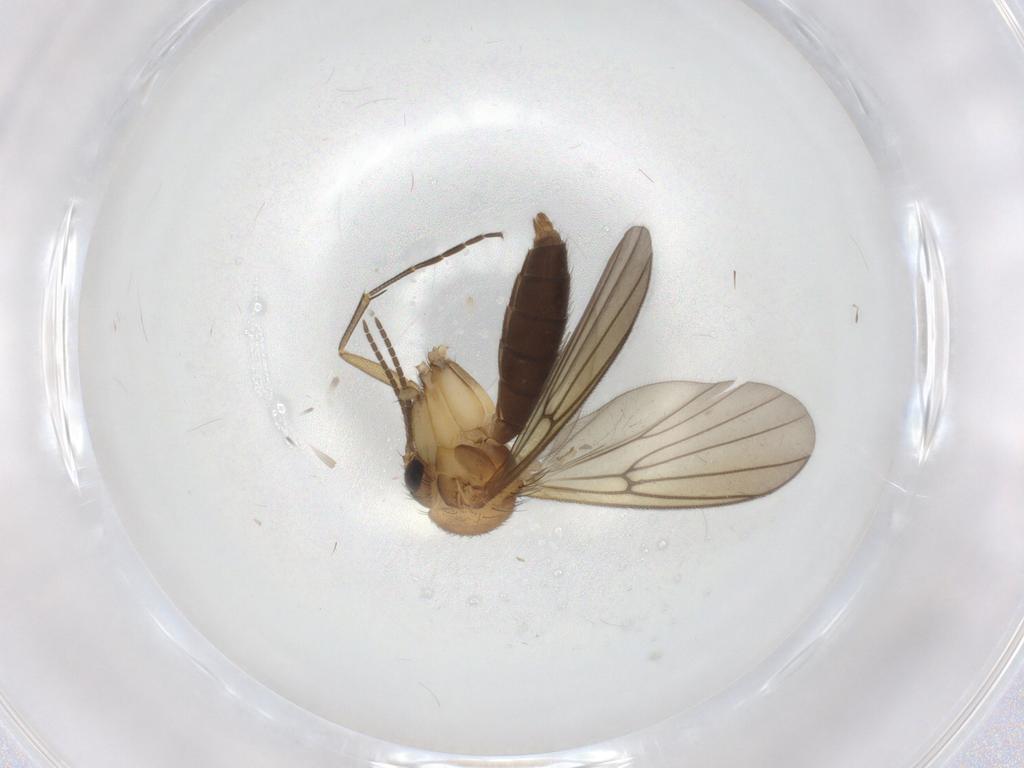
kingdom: Animalia
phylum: Arthropoda
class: Insecta
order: Diptera
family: Mycetophilidae
